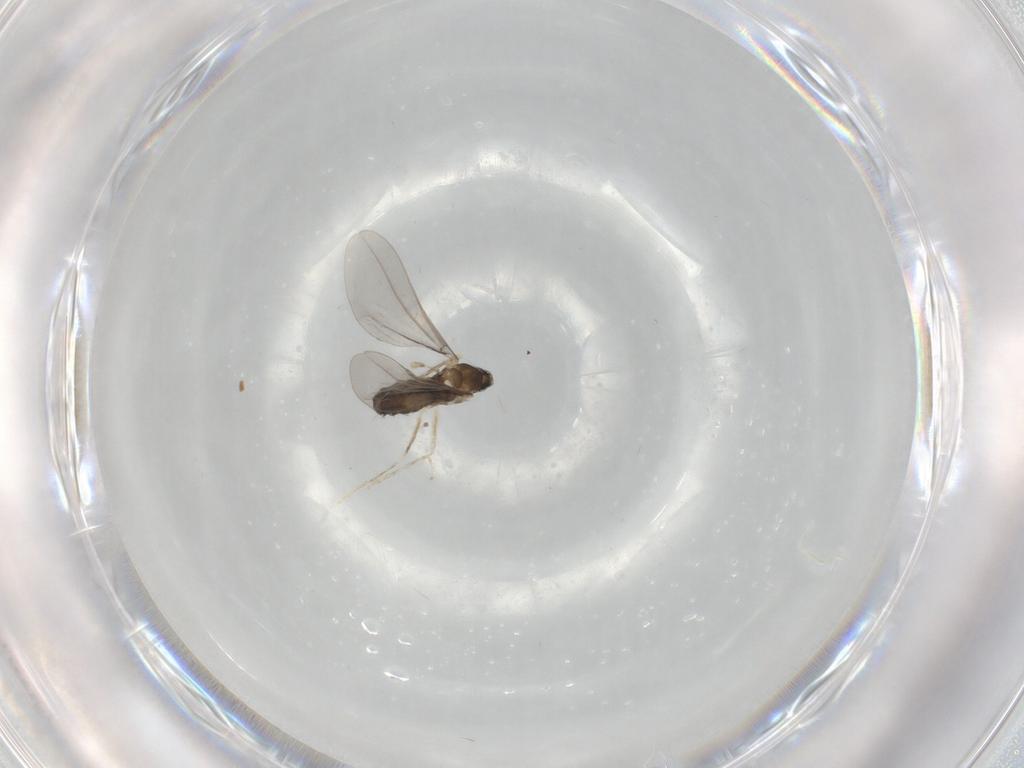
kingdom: Animalia
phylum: Arthropoda
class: Insecta
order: Diptera
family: Cecidomyiidae
